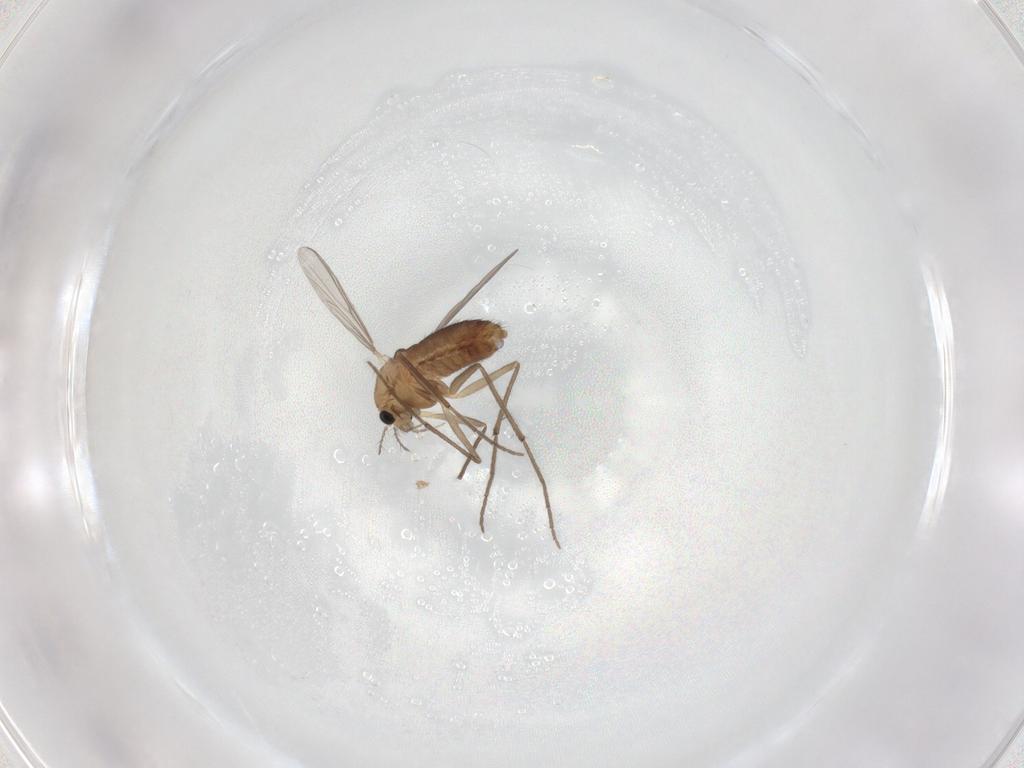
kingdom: Animalia
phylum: Arthropoda
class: Insecta
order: Diptera
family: Chironomidae
